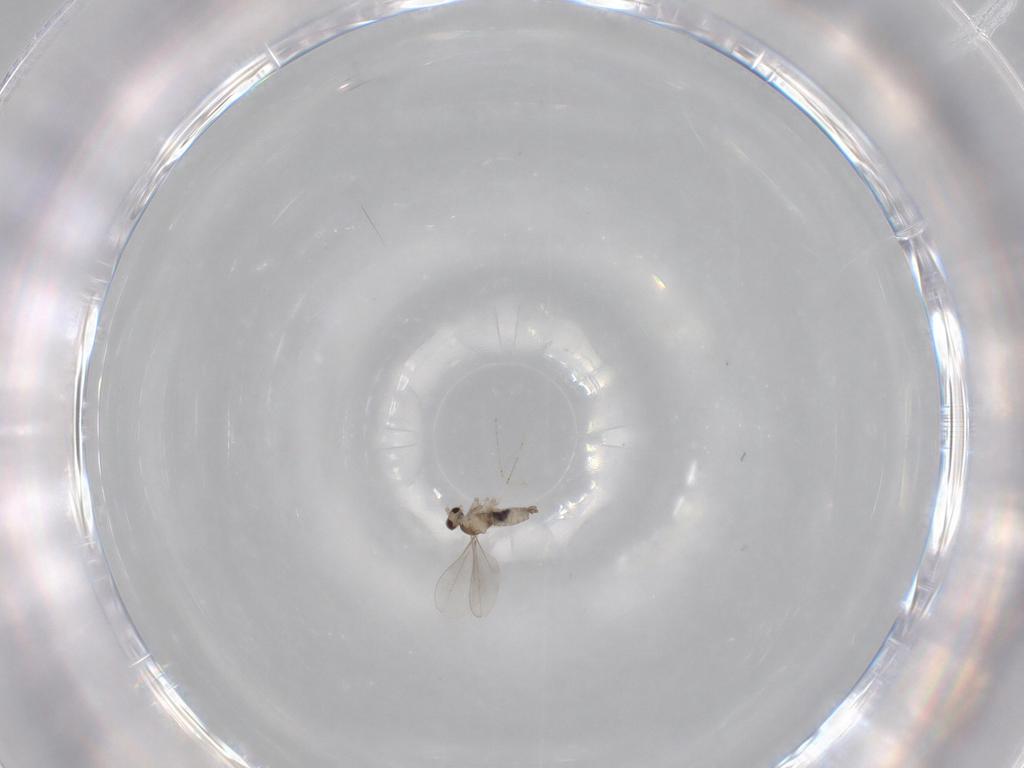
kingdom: Animalia
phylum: Arthropoda
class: Insecta
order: Diptera
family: Cecidomyiidae
